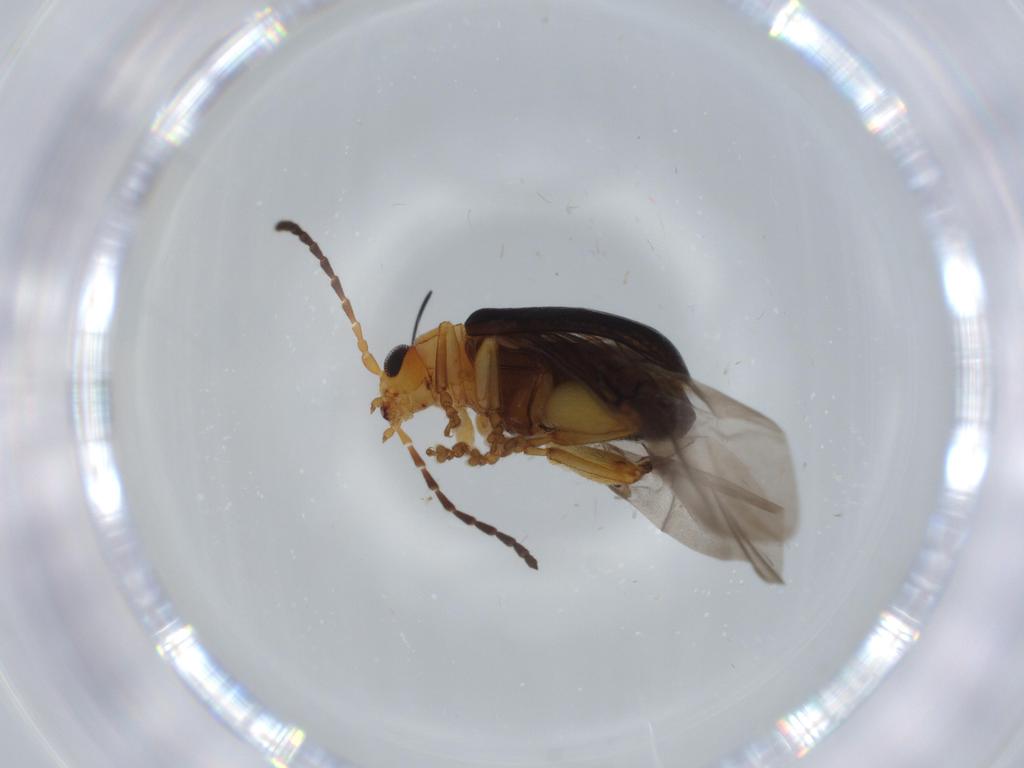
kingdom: Animalia
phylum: Arthropoda
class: Insecta
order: Coleoptera
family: Chrysomelidae
